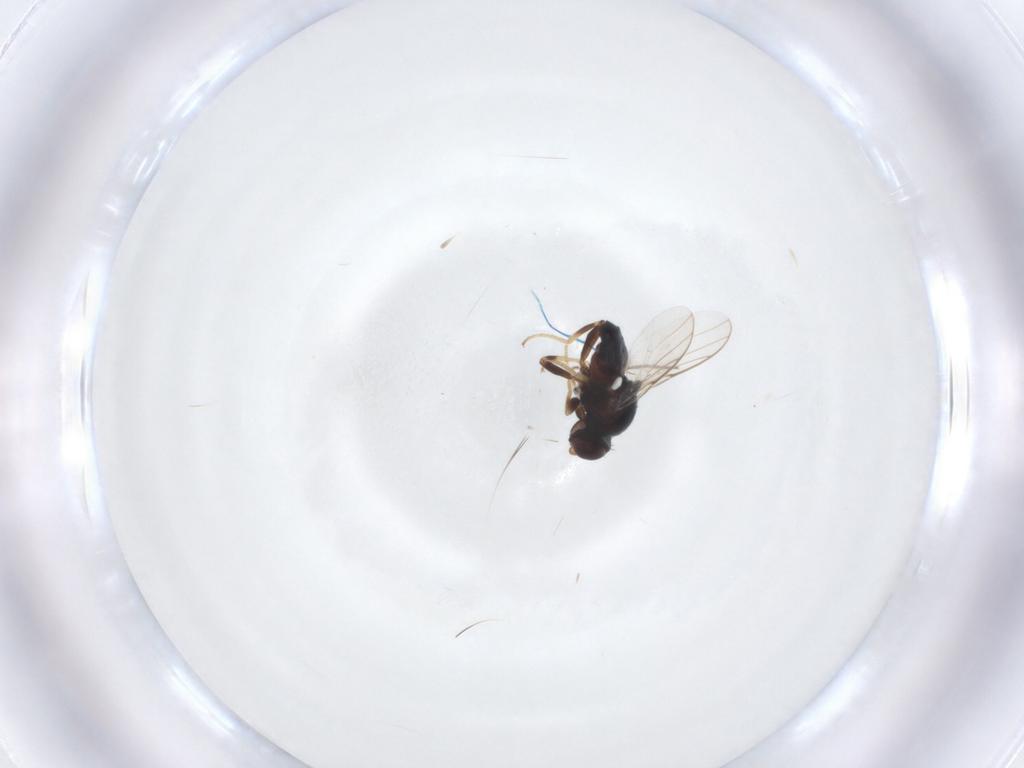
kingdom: Animalia
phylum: Arthropoda
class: Insecta
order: Diptera
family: Chloropidae
